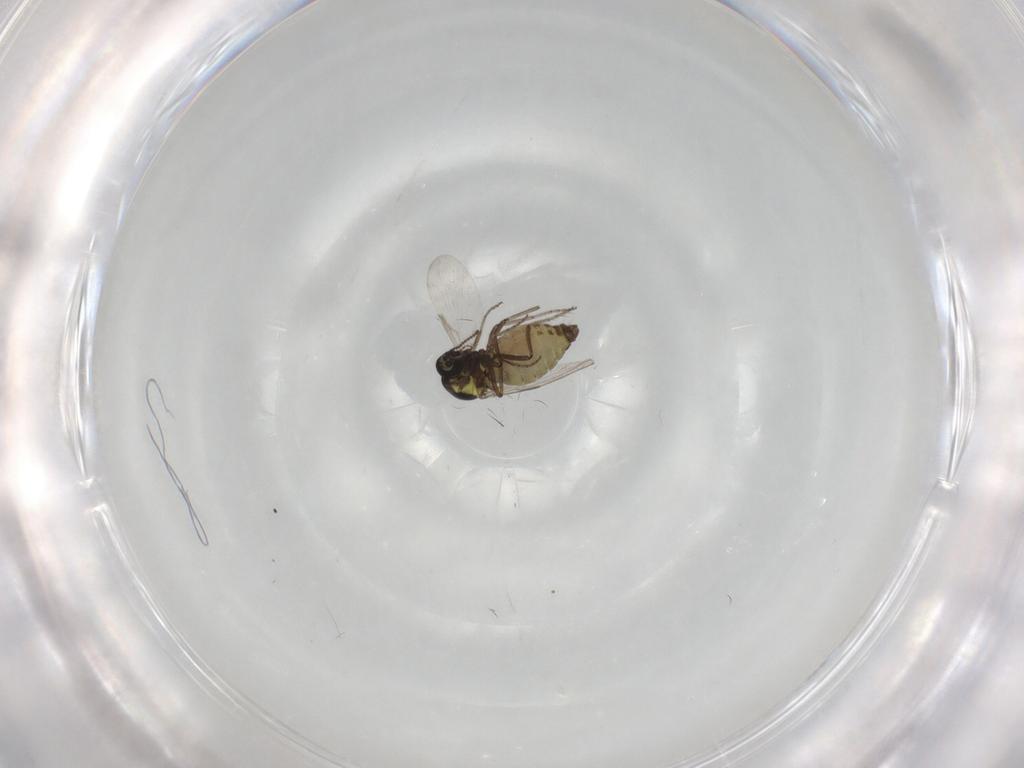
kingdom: Animalia
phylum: Arthropoda
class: Insecta
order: Diptera
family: Ceratopogonidae
